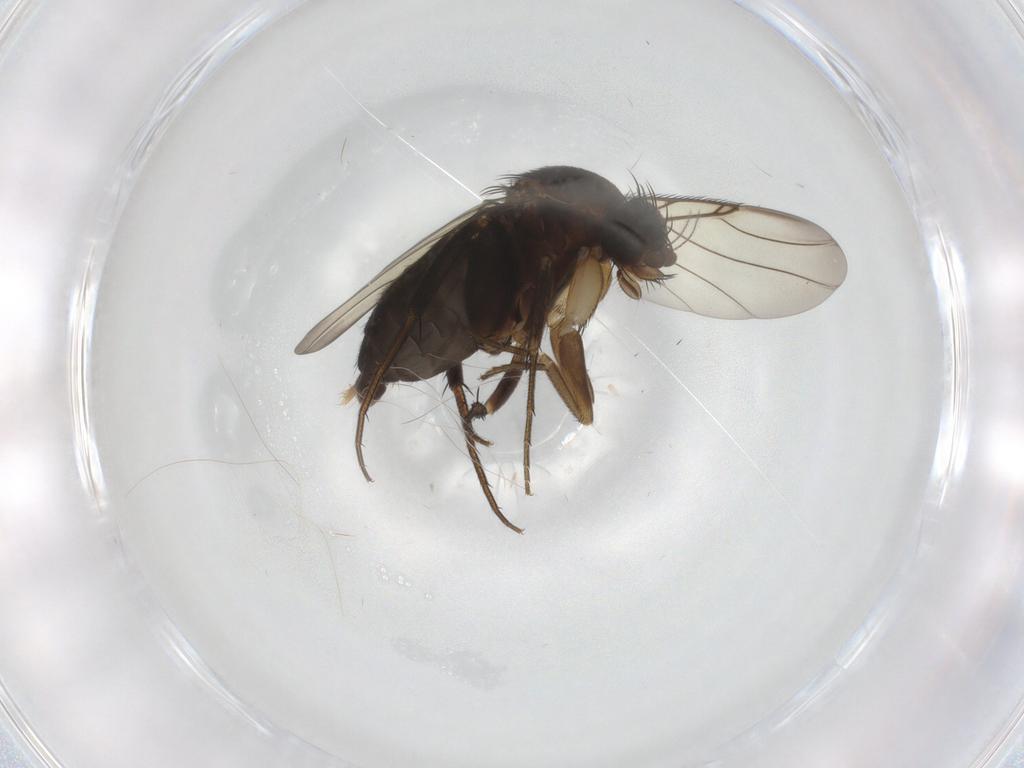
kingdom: Animalia
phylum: Arthropoda
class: Insecta
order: Diptera
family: Phoridae
